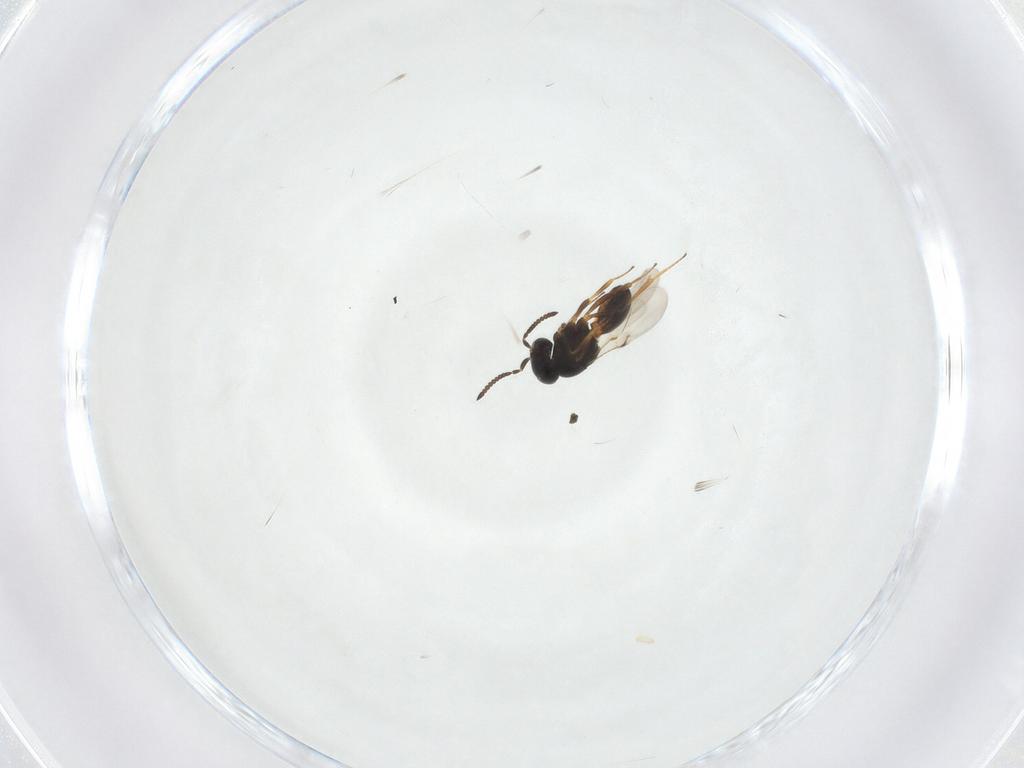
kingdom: Animalia
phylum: Arthropoda
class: Arachnida
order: Araneae
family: Pholcidae
